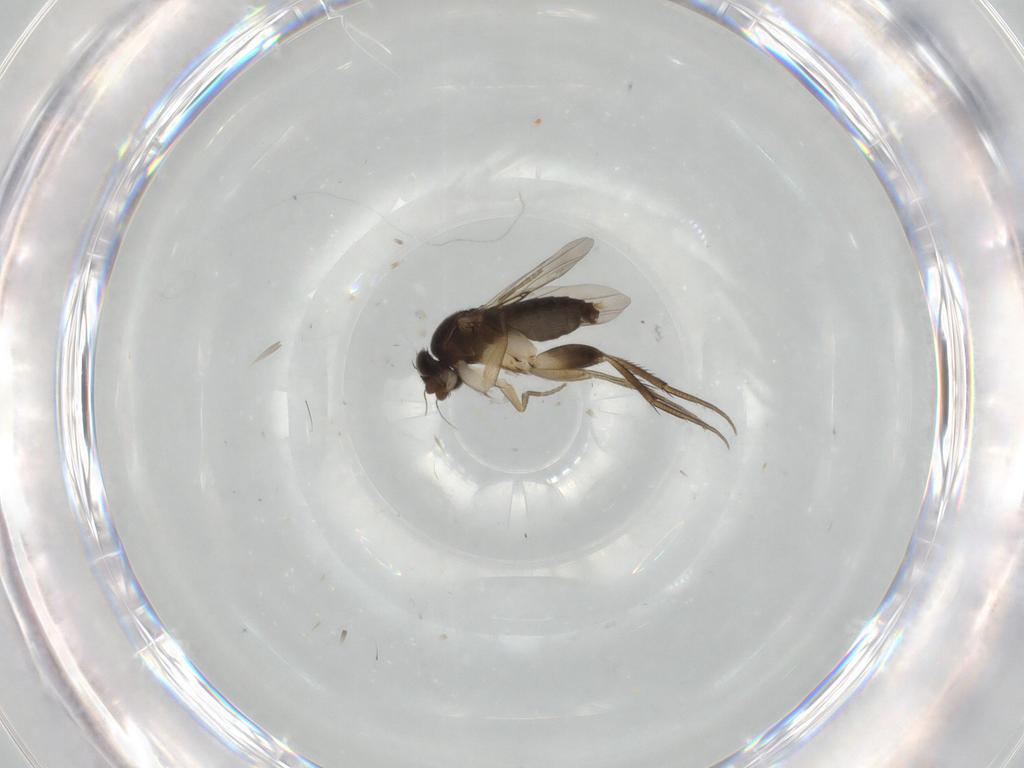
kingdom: Animalia
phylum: Arthropoda
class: Insecta
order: Diptera
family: Phoridae
